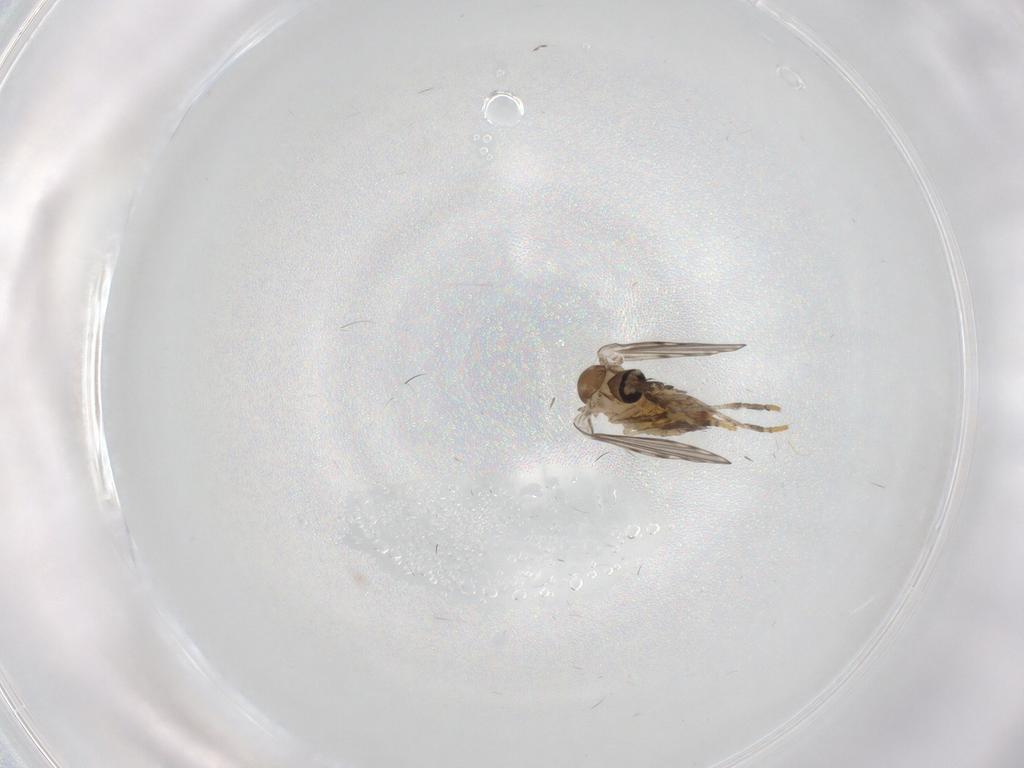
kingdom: Animalia
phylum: Arthropoda
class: Insecta
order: Diptera
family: Psychodidae
